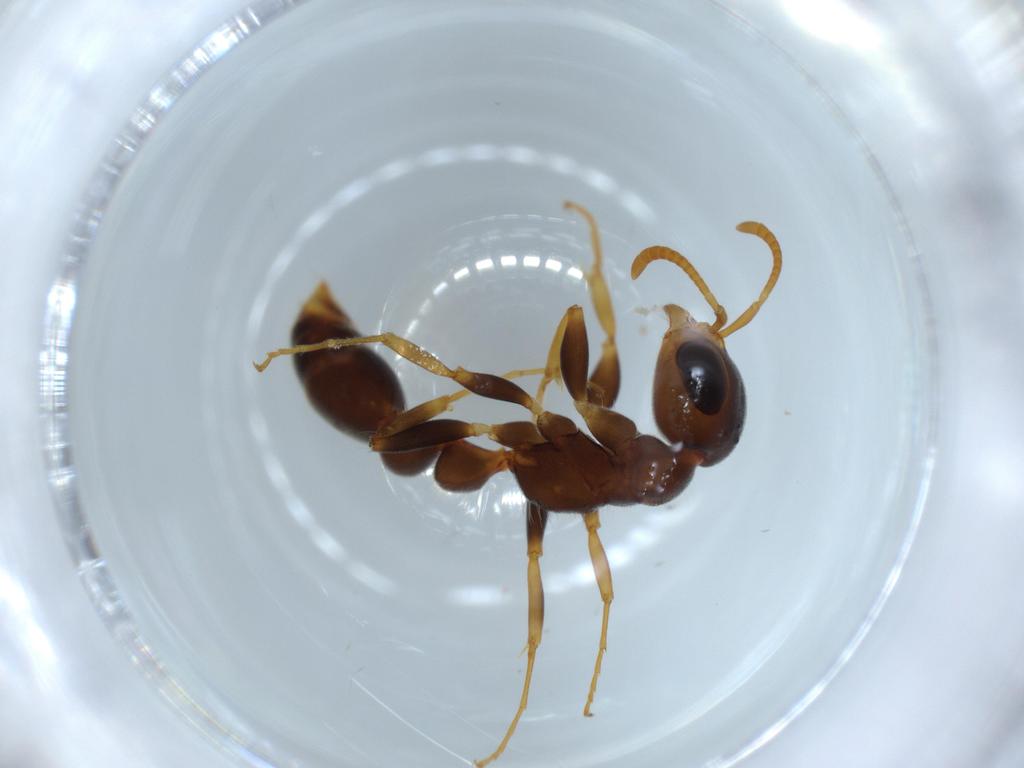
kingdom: Animalia
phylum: Arthropoda
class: Insecta
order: Hymenoptera
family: Formicidae
